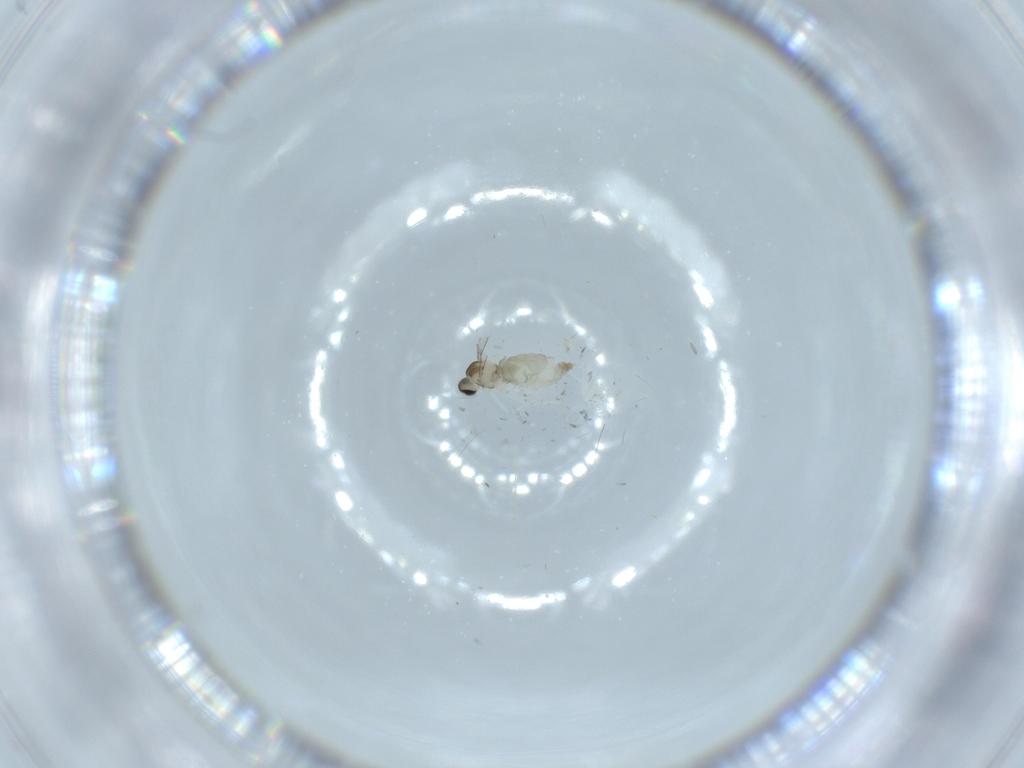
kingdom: Animalia
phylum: Arthropoda
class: Insecta
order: Diptera
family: Cecidomyiidae
